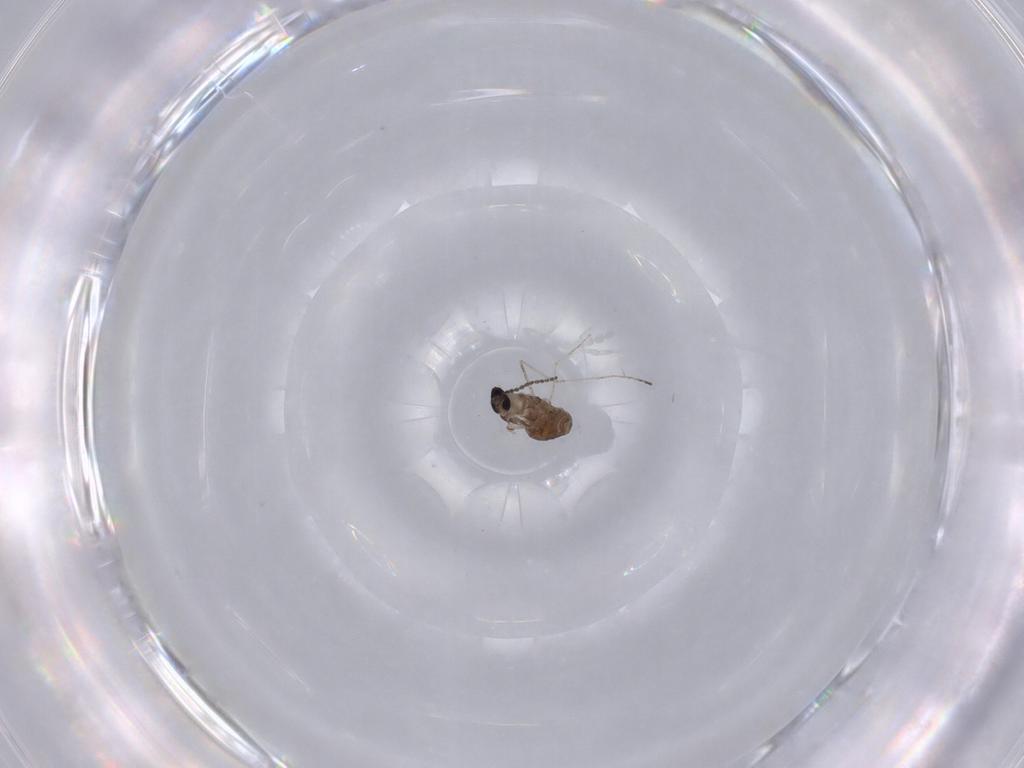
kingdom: Animalia
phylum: Arthropoda
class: Insecta
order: Diptera
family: Cecidomyiidae
